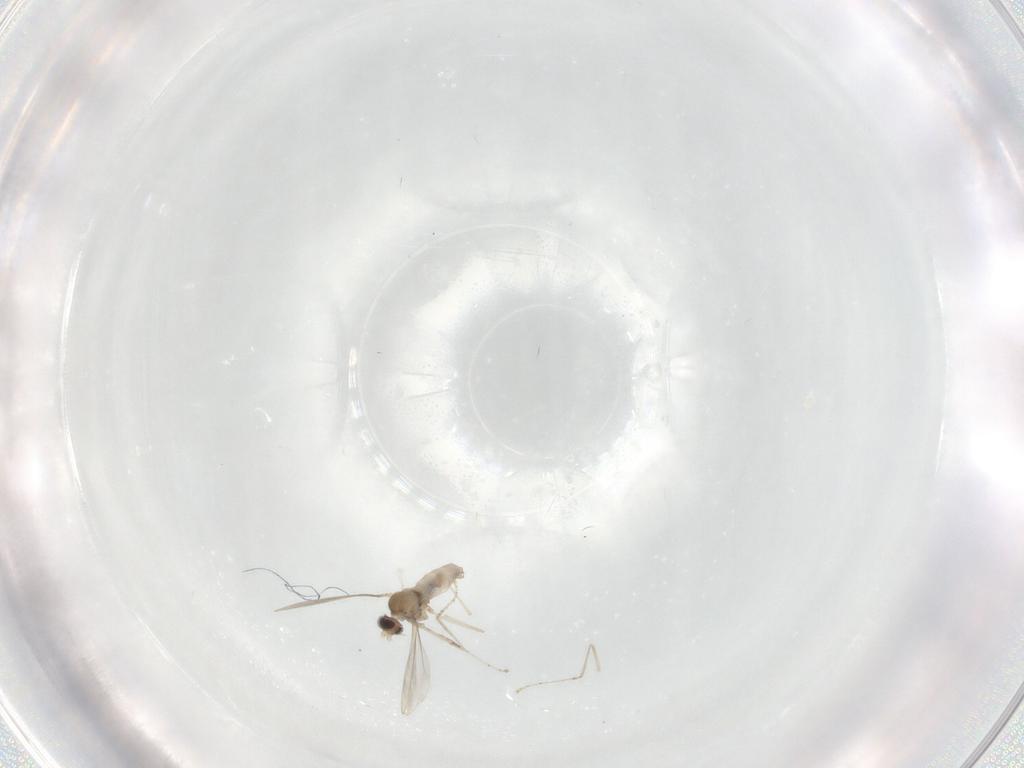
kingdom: Animalia
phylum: Arthropoda
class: Insecta
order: Diptera
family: Cecidomyiidae
